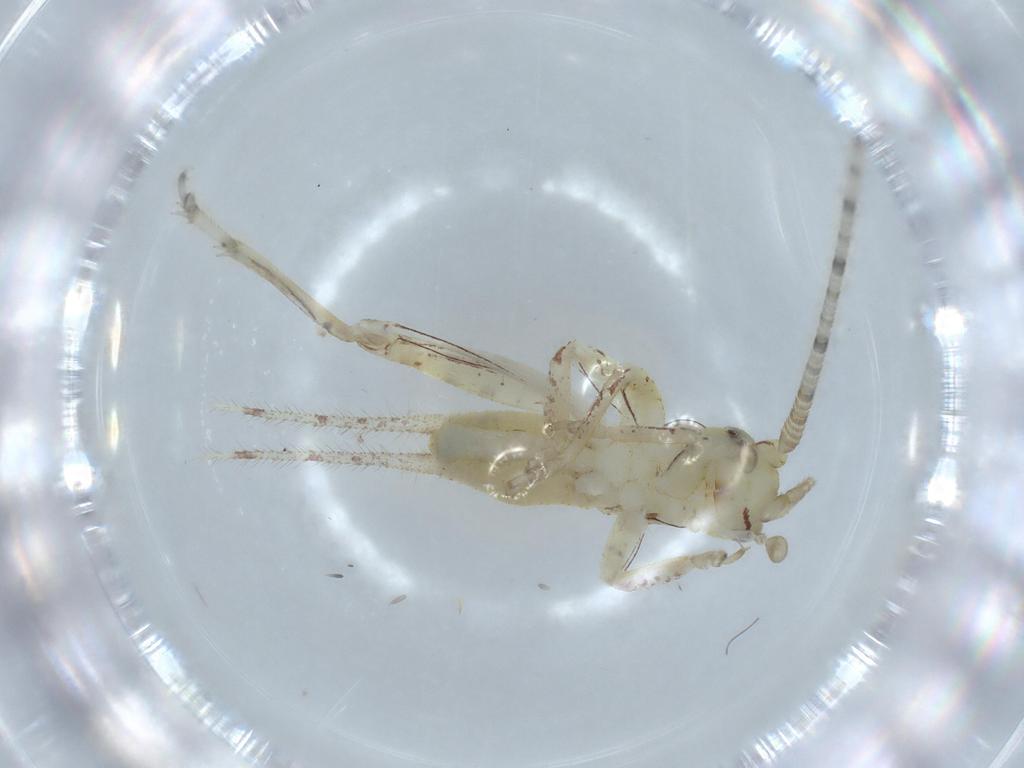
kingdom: Animalia
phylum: Arthropoda
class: Insecta
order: Orthoptera
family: Gryllidae
